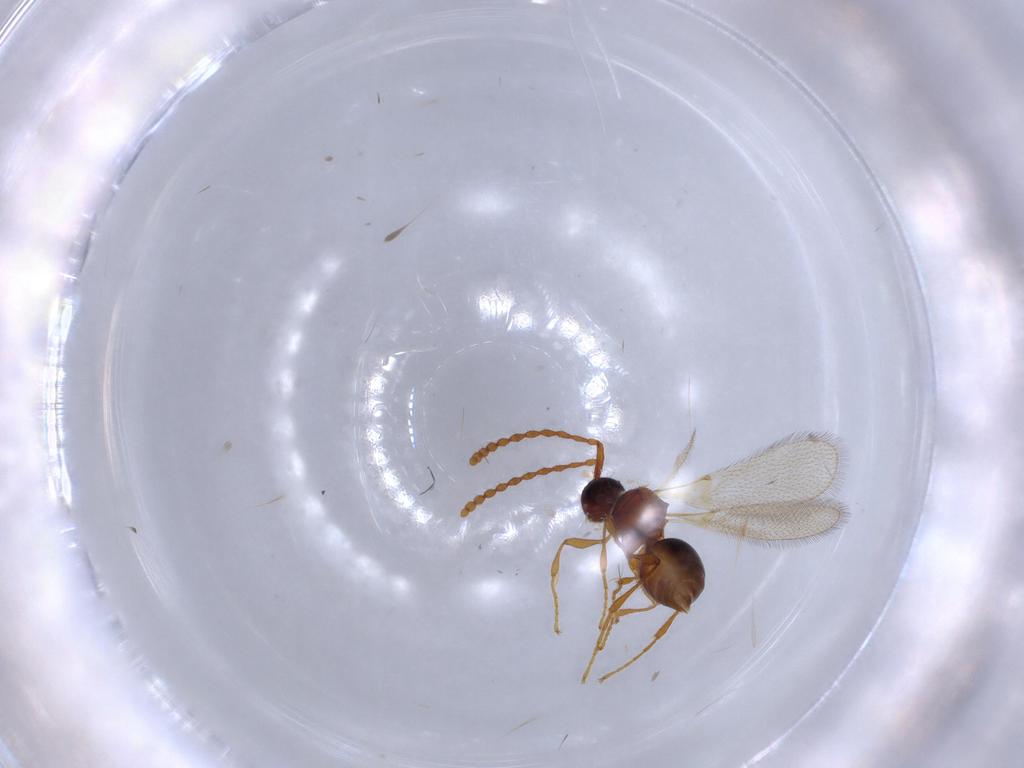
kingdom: Animalia
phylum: Arthropoda
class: Insecta
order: Hymenoptera
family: Diapriidae
